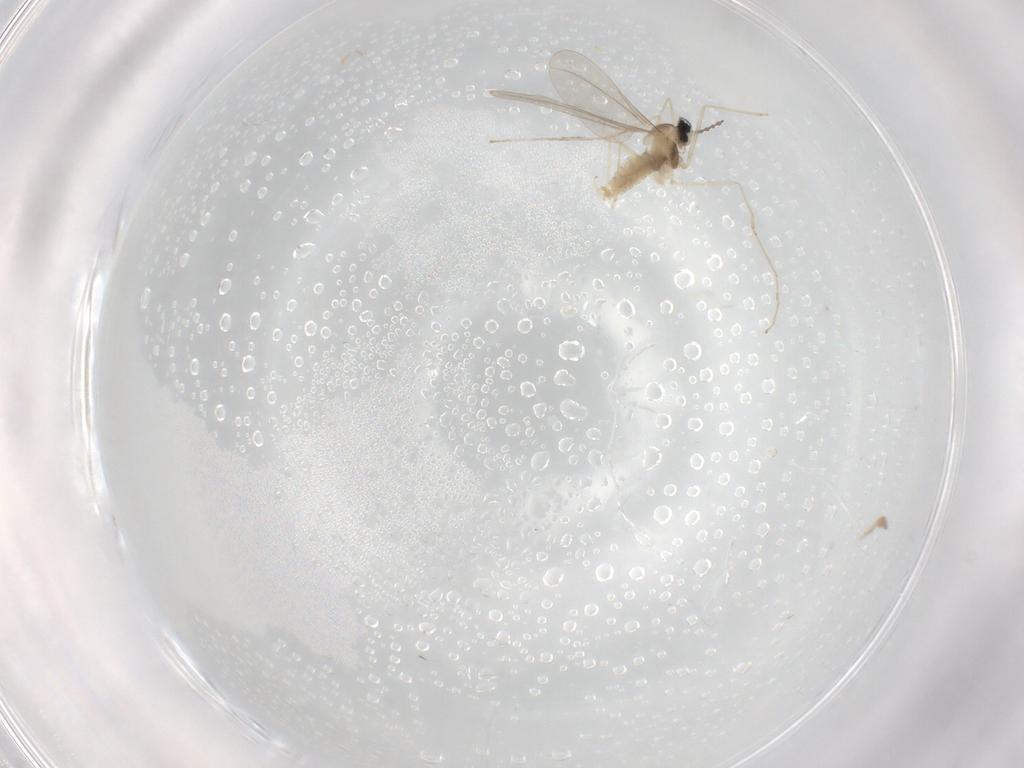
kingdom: Animalia
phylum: Arthropoda
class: Insecta
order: Diptera
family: Cecidomyiidae
